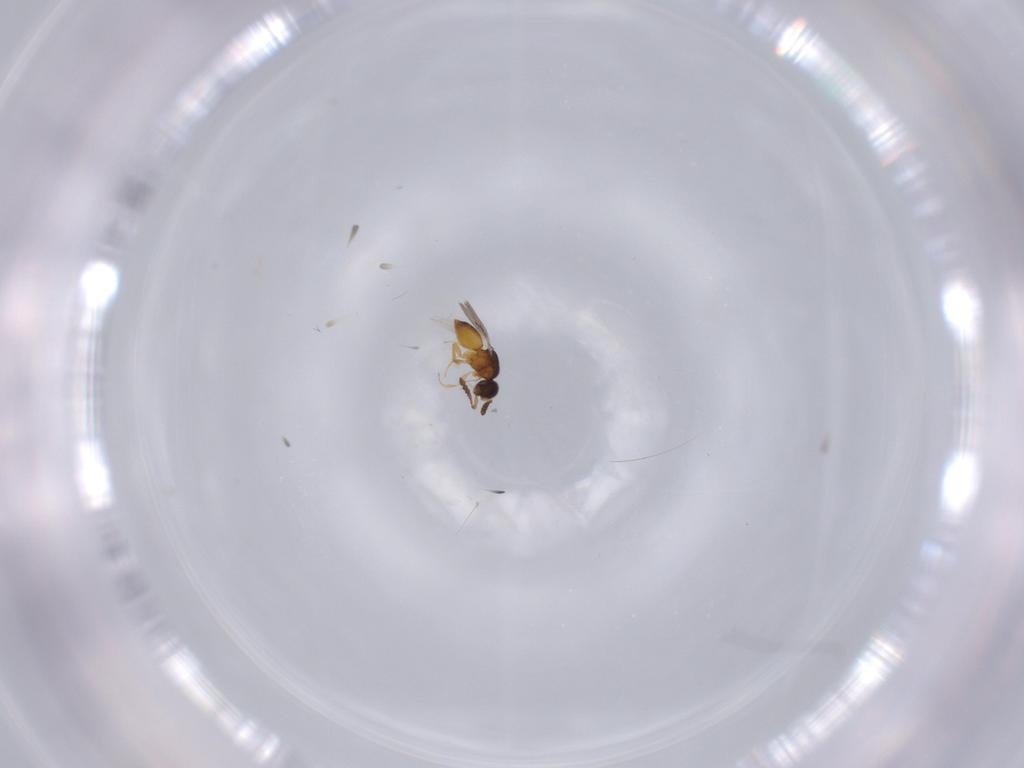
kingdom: Animalia
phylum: Arthropoda
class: Insecta
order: Hymenoptera
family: Ceraphronidae
